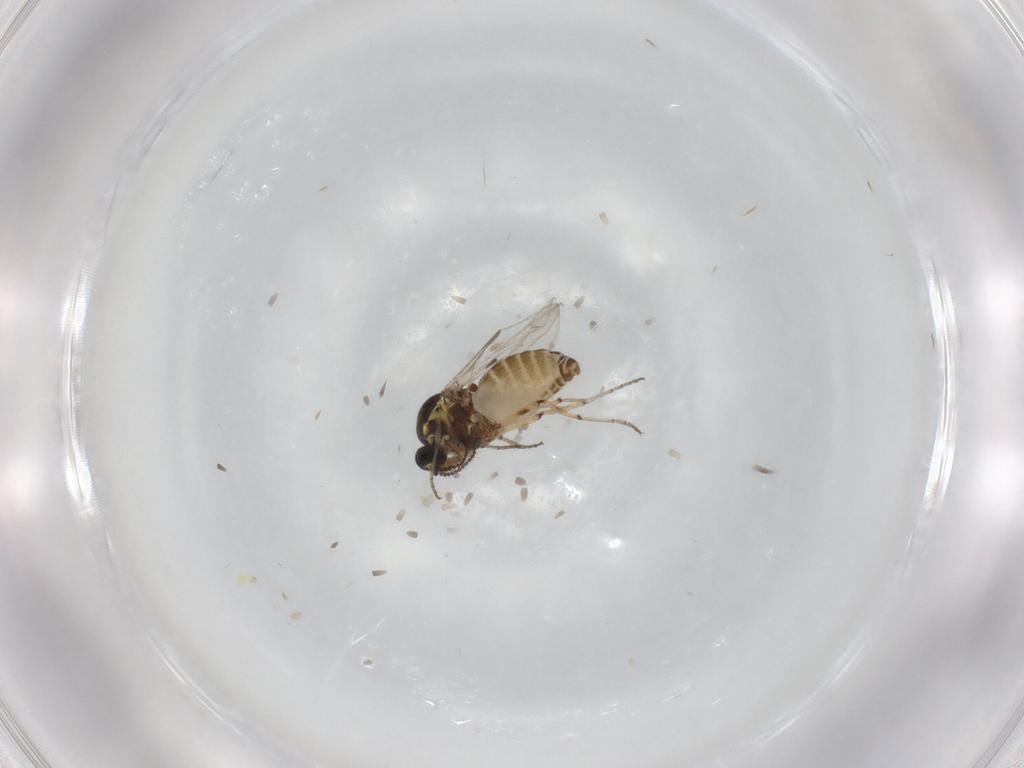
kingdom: Animalia
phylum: Arthropoda
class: Insecta
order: Diptera
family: Ceratopogonidae
